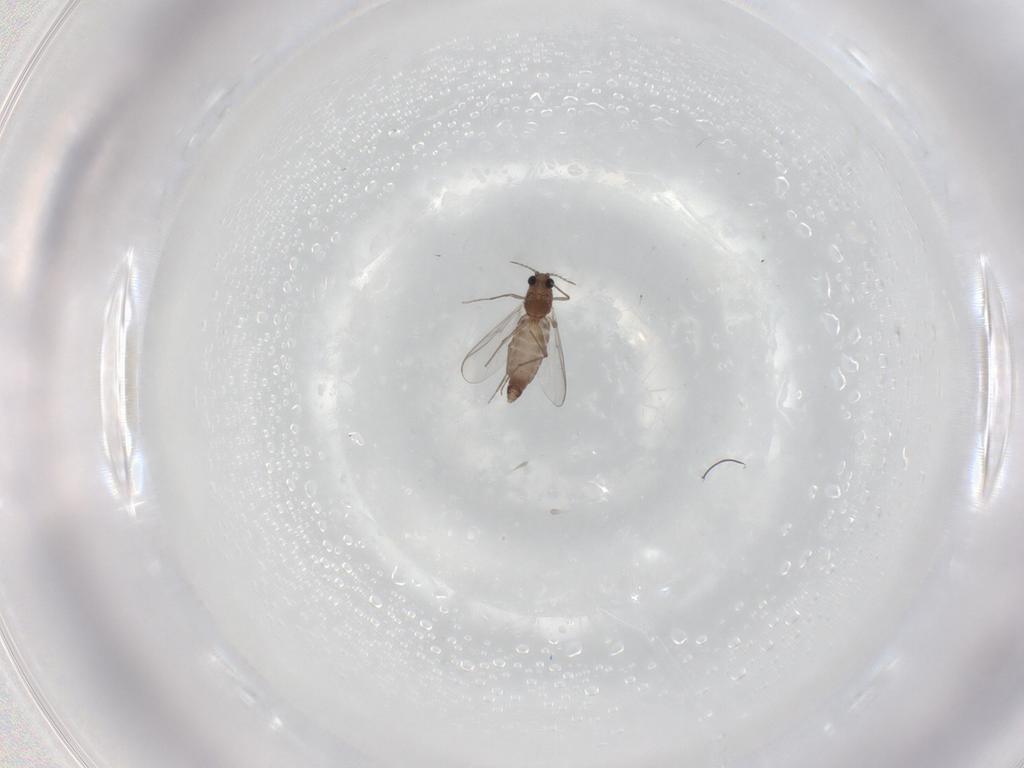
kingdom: Animalia
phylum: Arthropoda
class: Insecta
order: Diptera
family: Chironomidae
